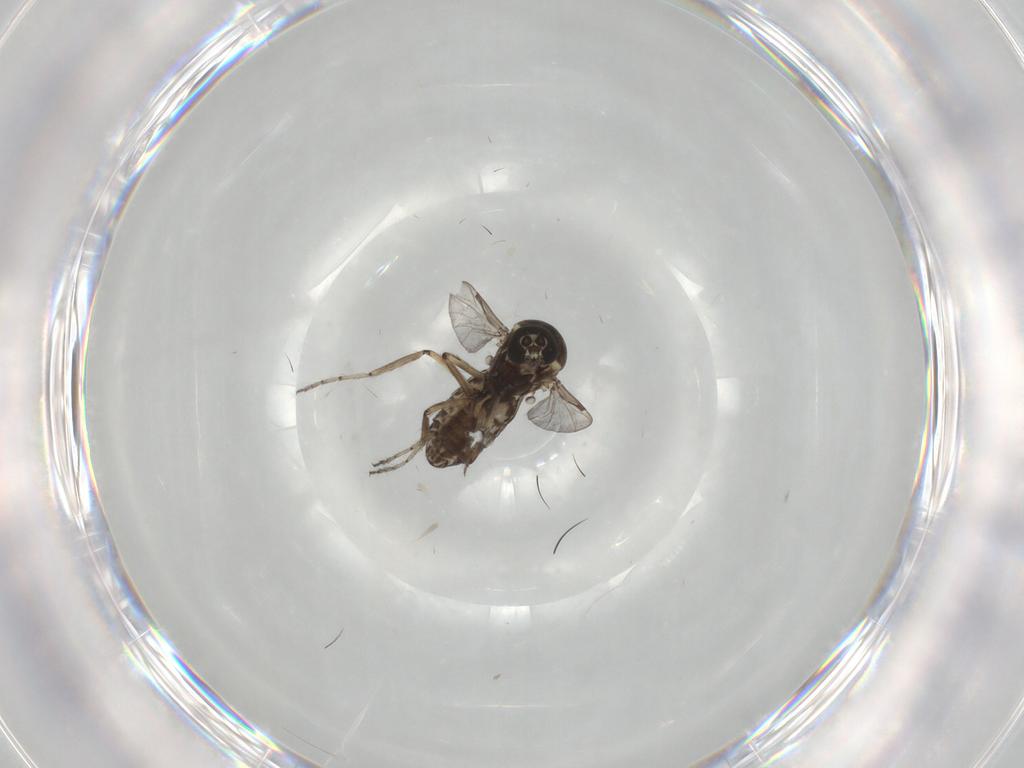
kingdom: Animalia
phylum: Arthropoda
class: Insecta
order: Diptera
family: Ceratopogonidae
